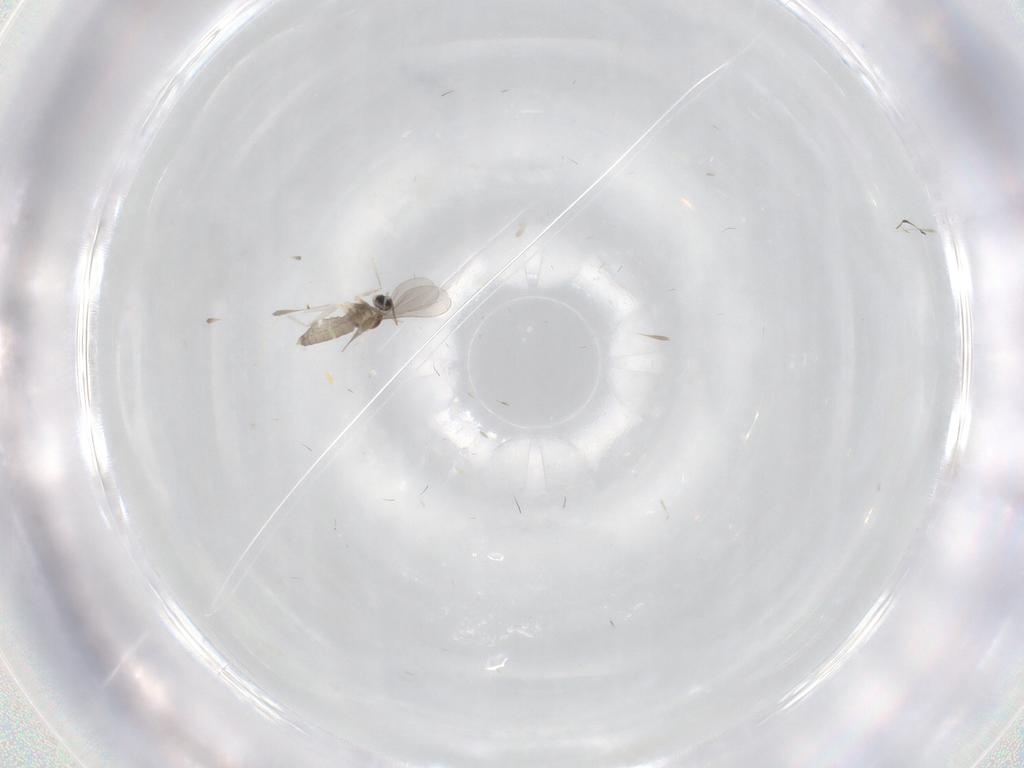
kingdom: Animalia
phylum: Arthropoda
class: Insecta
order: Diptera
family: Cecidomyiidae
